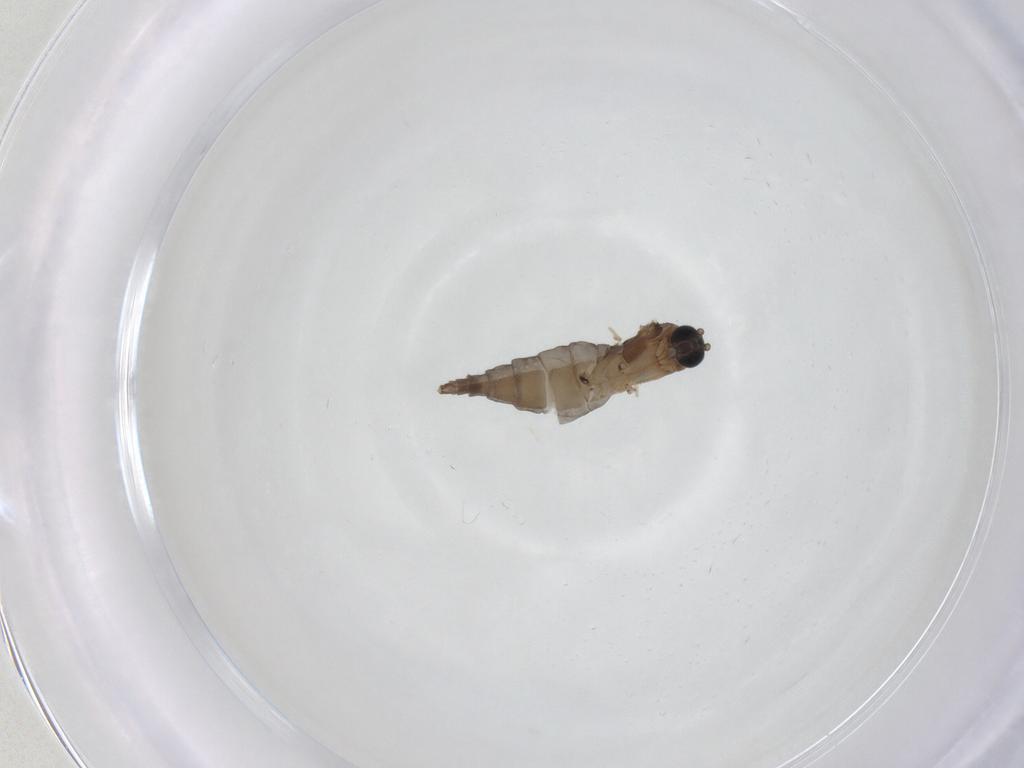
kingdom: Animalia
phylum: Arthropoda
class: Insecta
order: Diptera
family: Sciaridae
